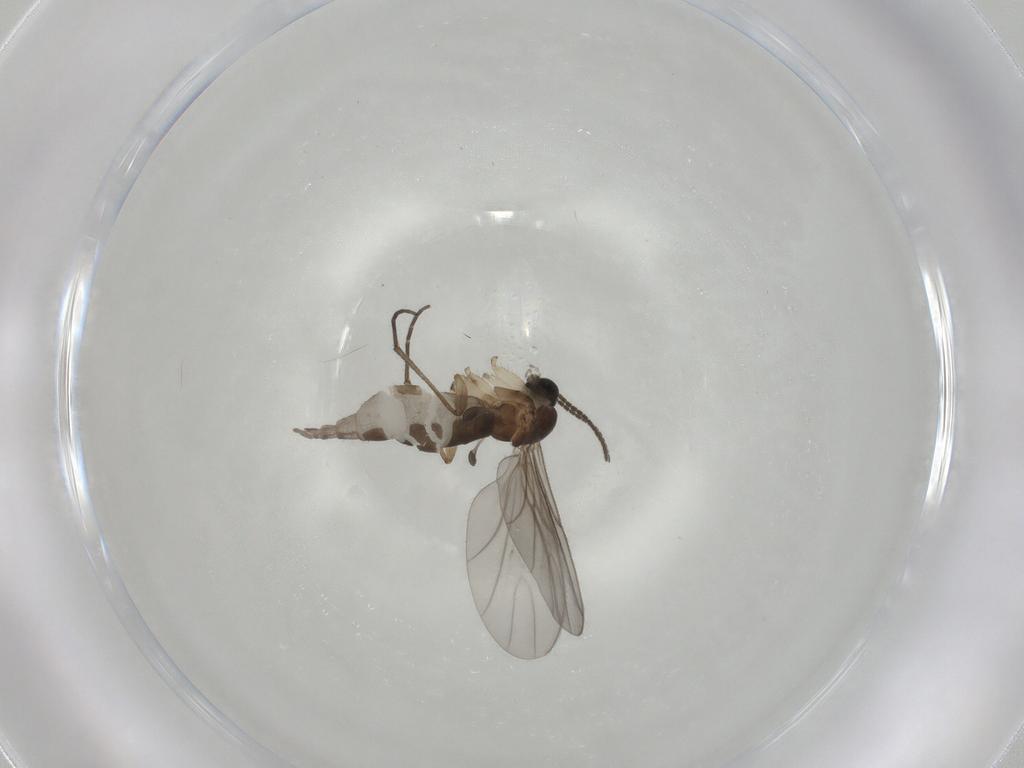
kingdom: Animalia
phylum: Arthropoda
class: Insecta
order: Diptera
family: Sciaridae
